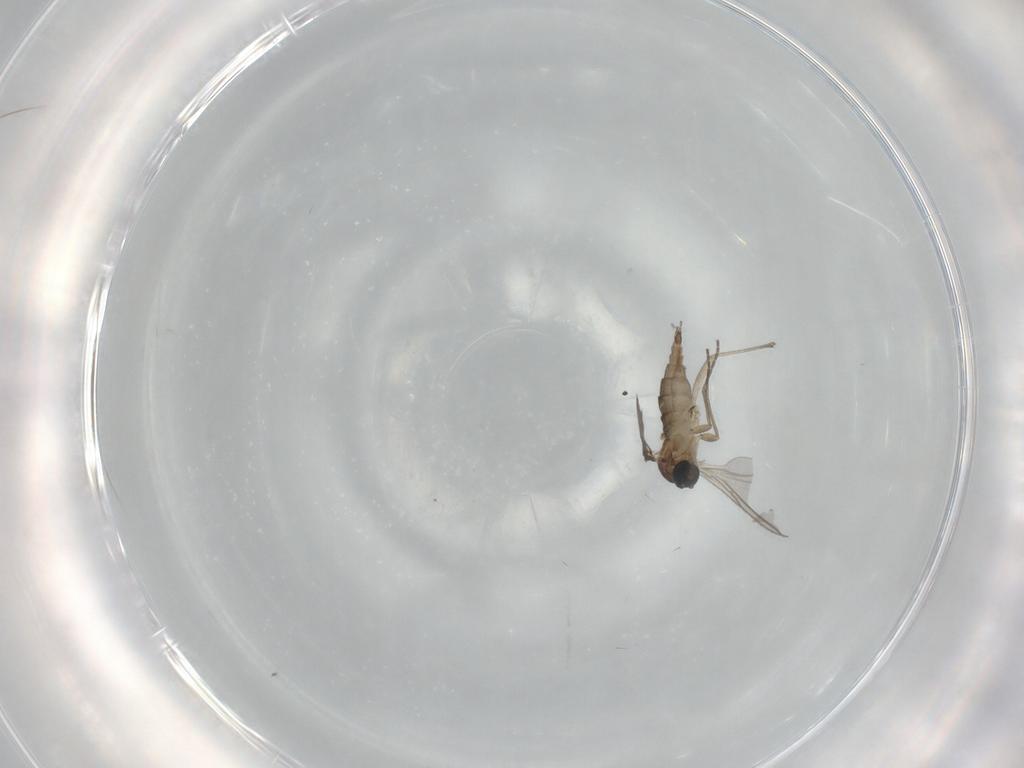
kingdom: Animalia
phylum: Arthropoda
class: Insecta
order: Diptera
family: Sciaridae
